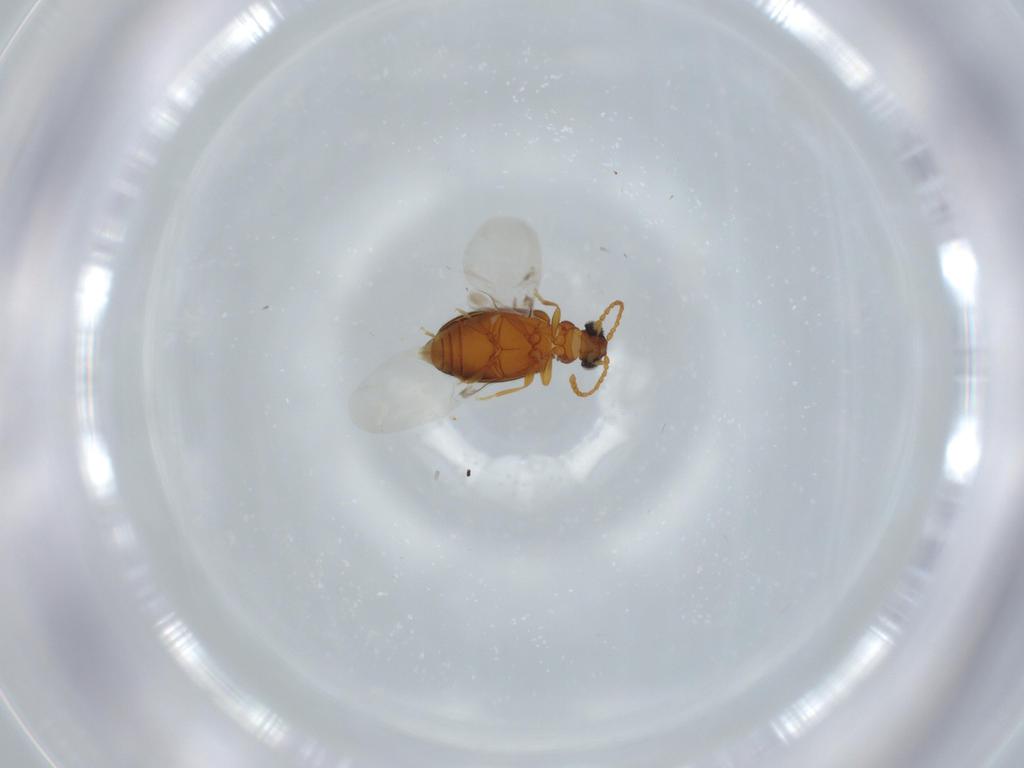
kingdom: Animalia
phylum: Arthropoda
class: Insecta
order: Coleoptera
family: Aderidae
